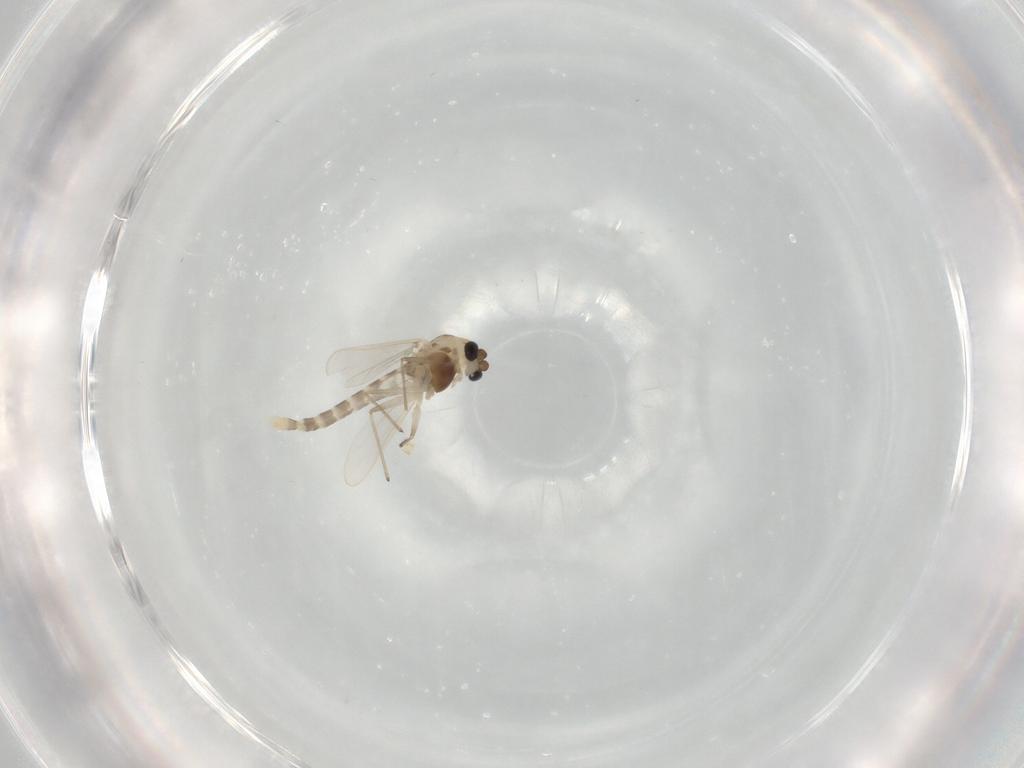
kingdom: Animalia
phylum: Arthropoda
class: Insecta
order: Diptera
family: Chironomidae
